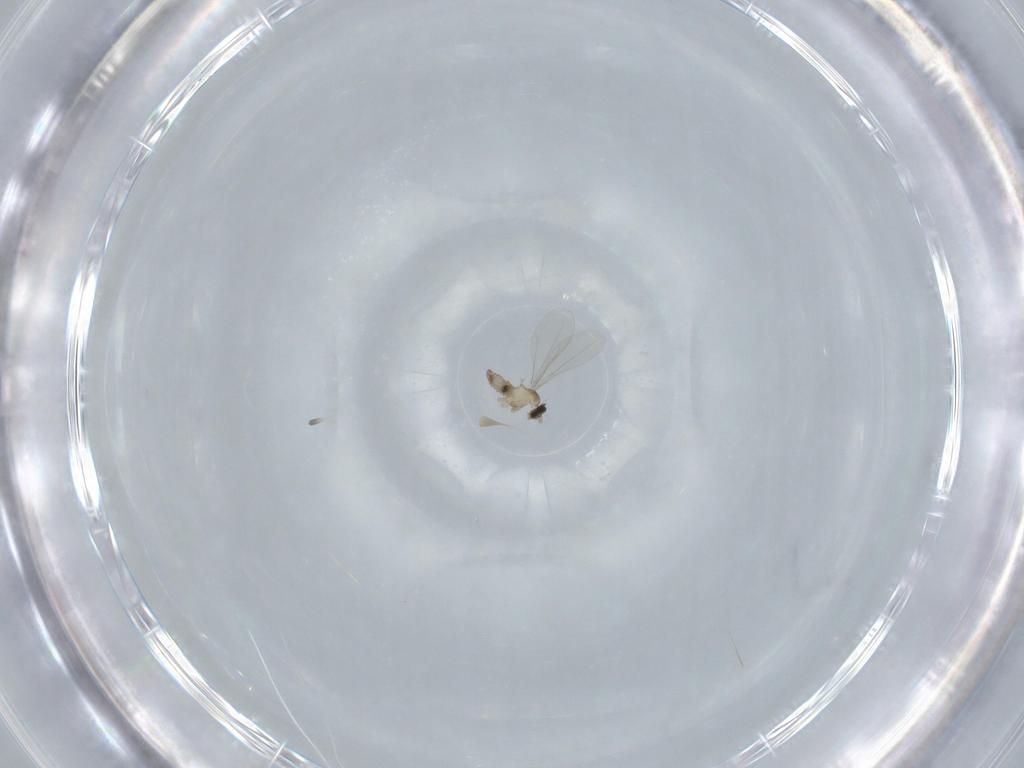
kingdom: Animalia
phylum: Arthropoda
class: Insecta
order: Diptera
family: Cecidomyiidae
